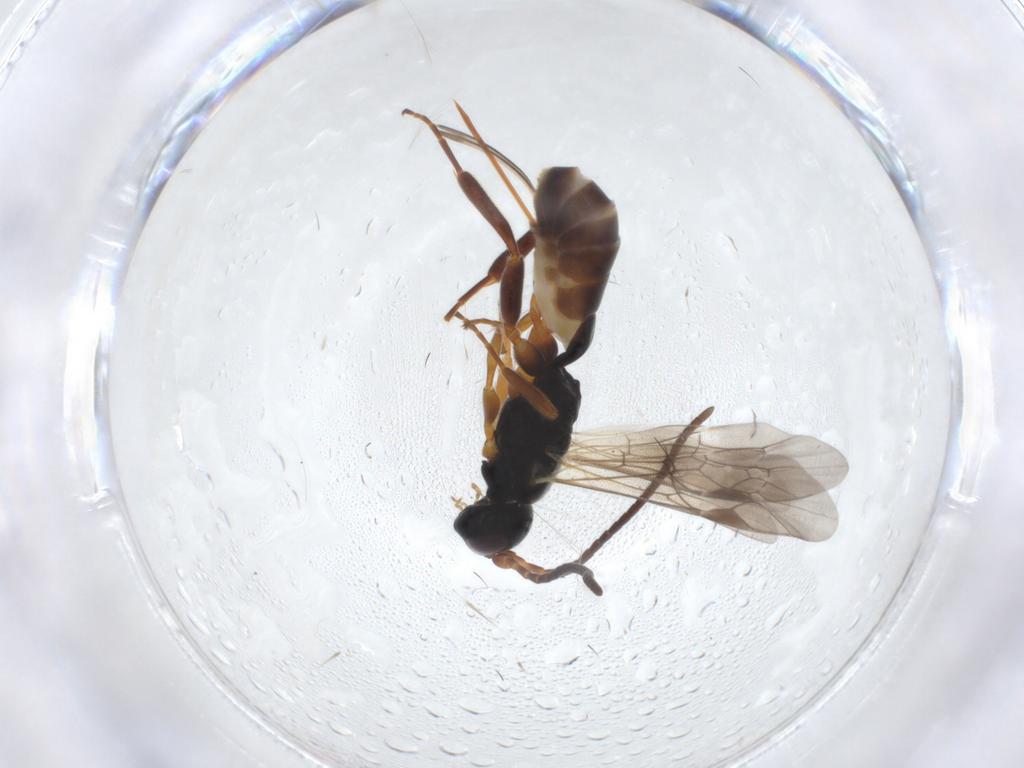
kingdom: Animalia
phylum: Arthropoda
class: Insecta
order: Hymenoptera
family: Ichneumonidae
